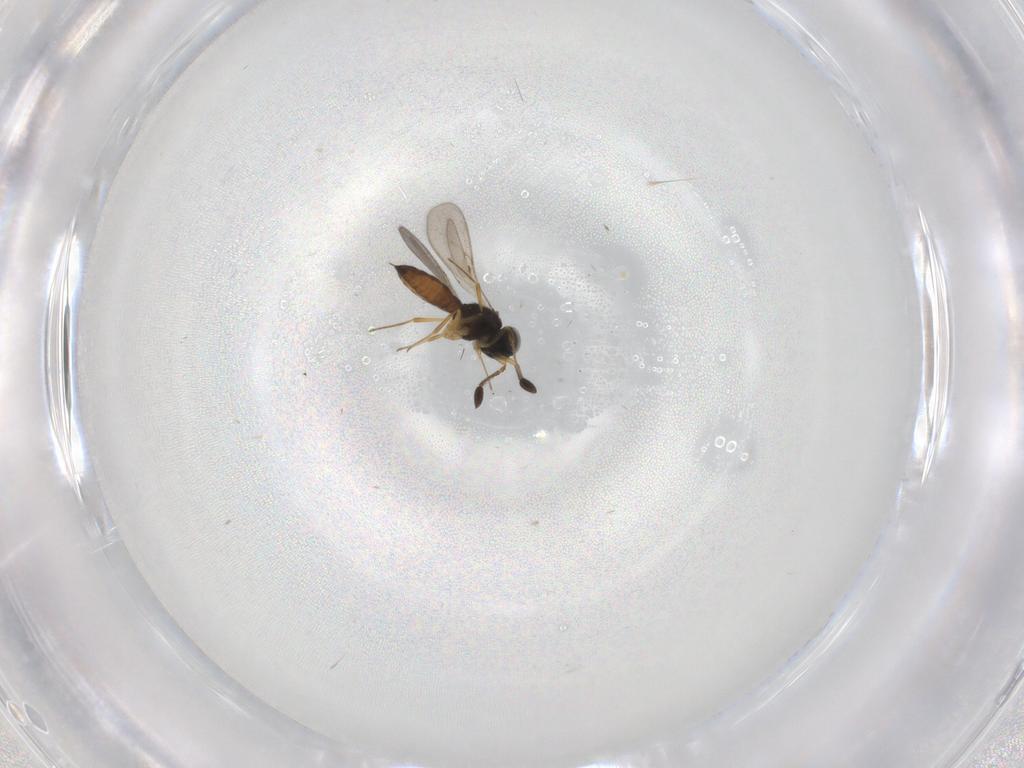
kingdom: Animalia
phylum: Arthropoda
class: Insecta
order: Hymenoptera
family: Scelionidae
